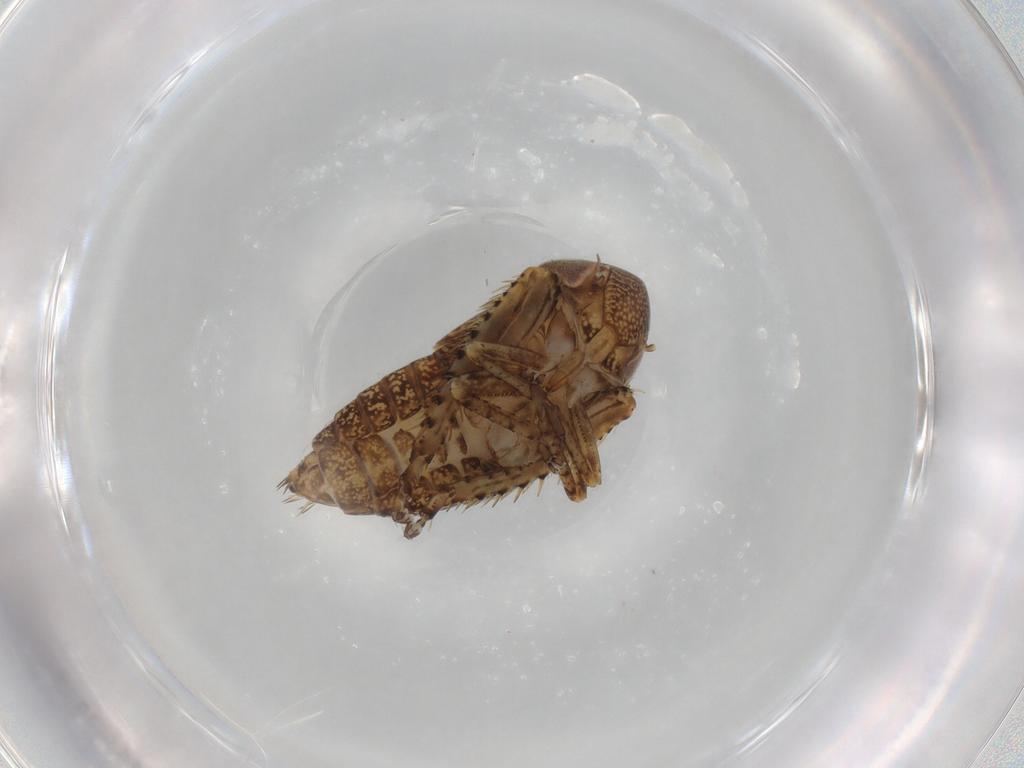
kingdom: Animalia
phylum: Arthropoda
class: Insecta
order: Hemiptera
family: Cicadellidae
